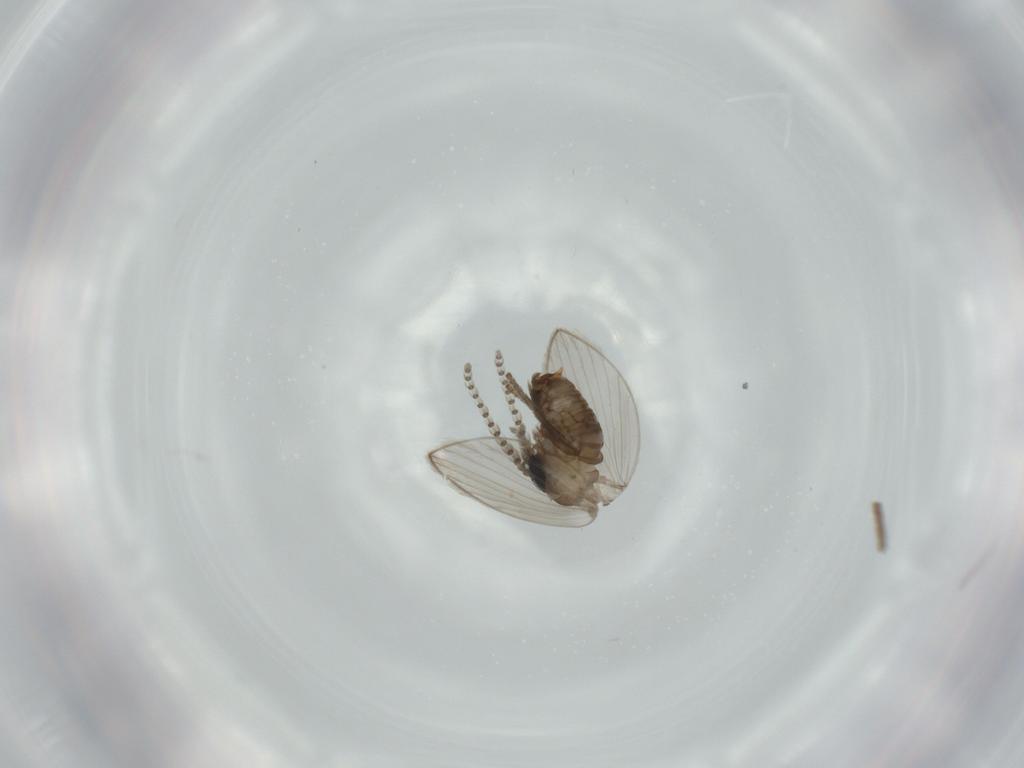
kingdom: Animalia
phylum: Arthropoda
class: Insecta
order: Diptera
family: Psychodidae
